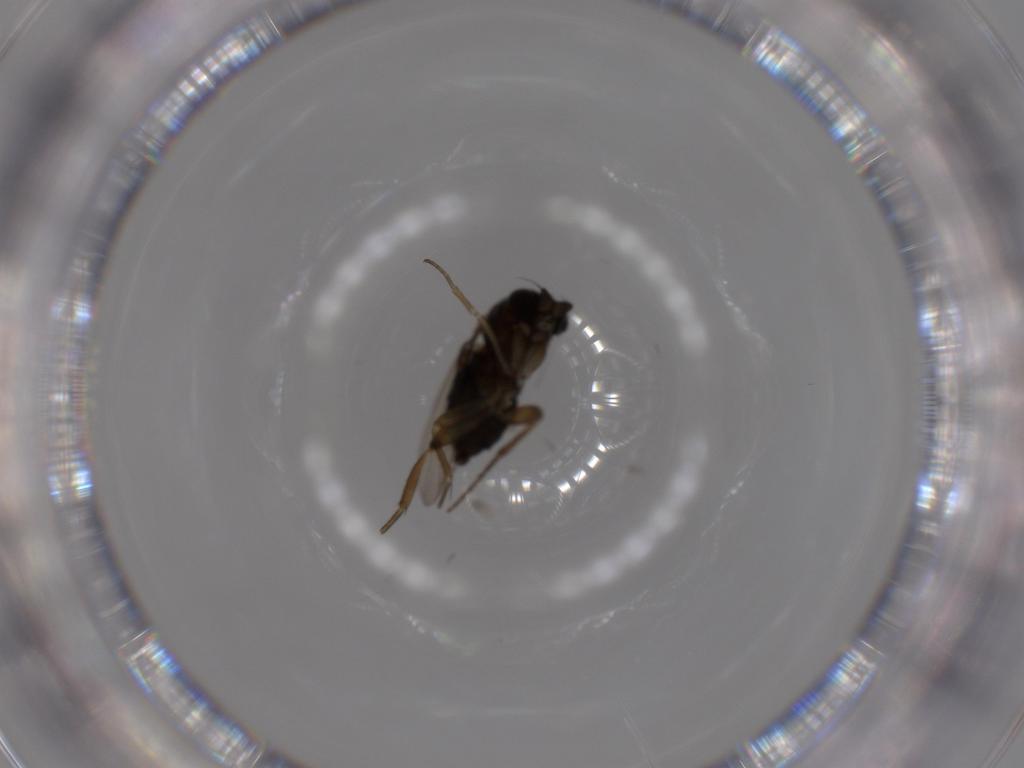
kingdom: Animalia
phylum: Arthropoda
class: Insecta
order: Diptera
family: Phoridae
